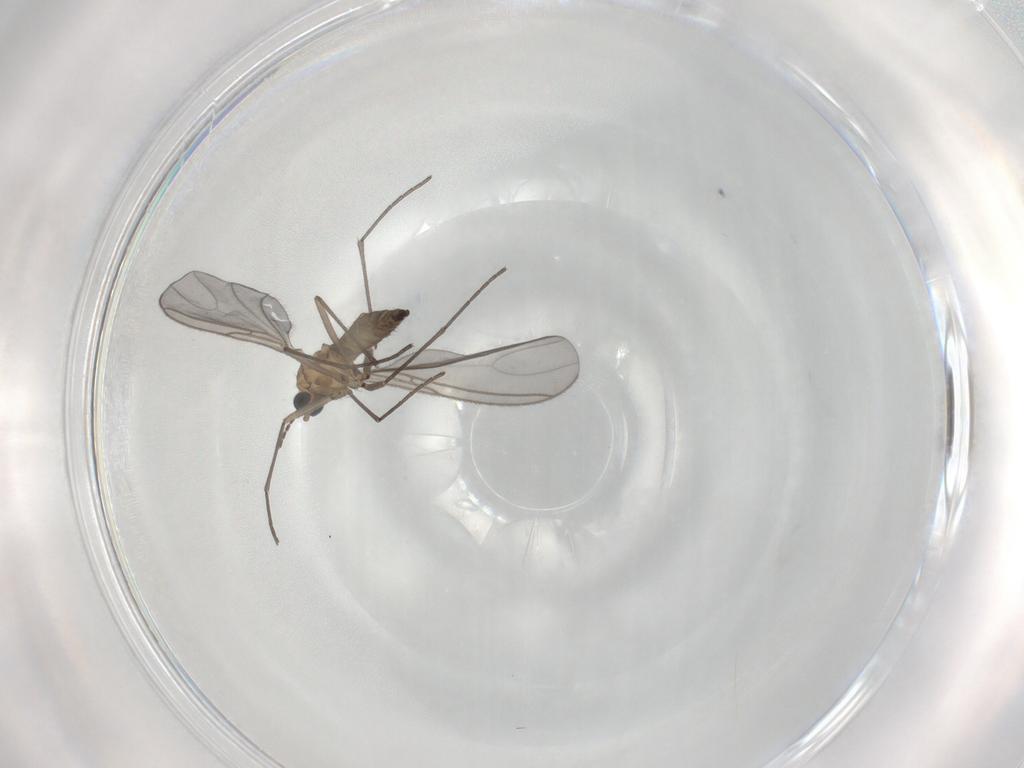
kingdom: Animalia
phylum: Arthropoda
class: Insecta
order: Diptera
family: Sciaridae
